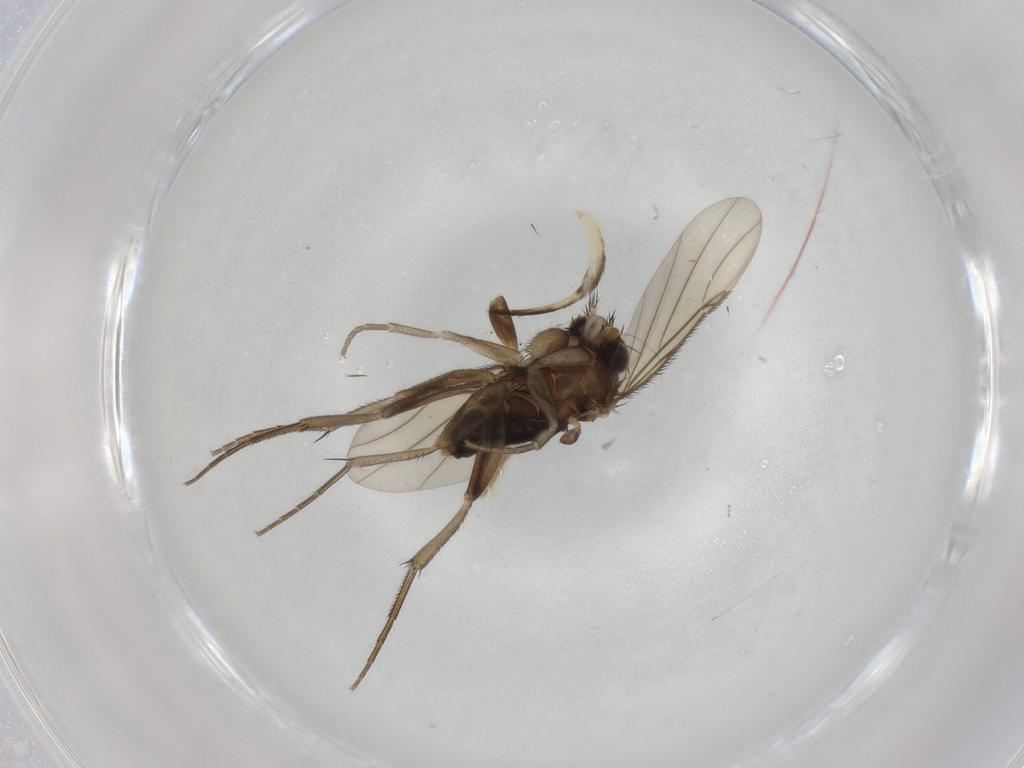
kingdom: Animalia
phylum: Arthropoda
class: Insecta
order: Diptera
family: Phoridae
